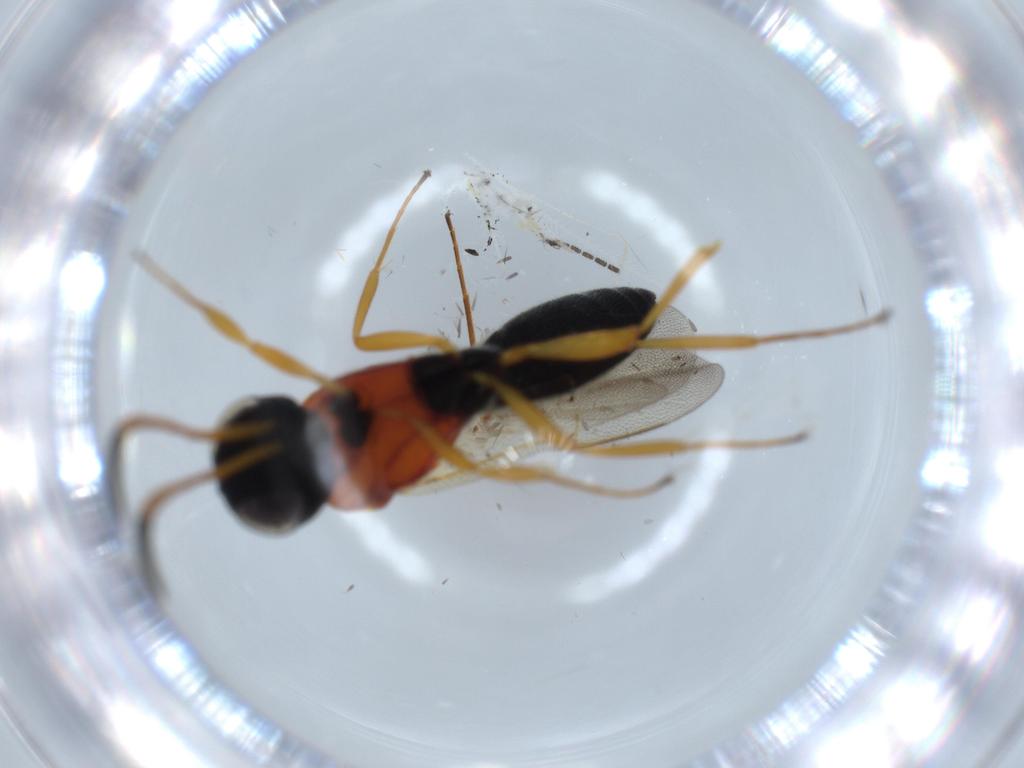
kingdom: Animalia
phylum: Arthropoda
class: Insecta
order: Hymenoptera
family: Scelionidae
